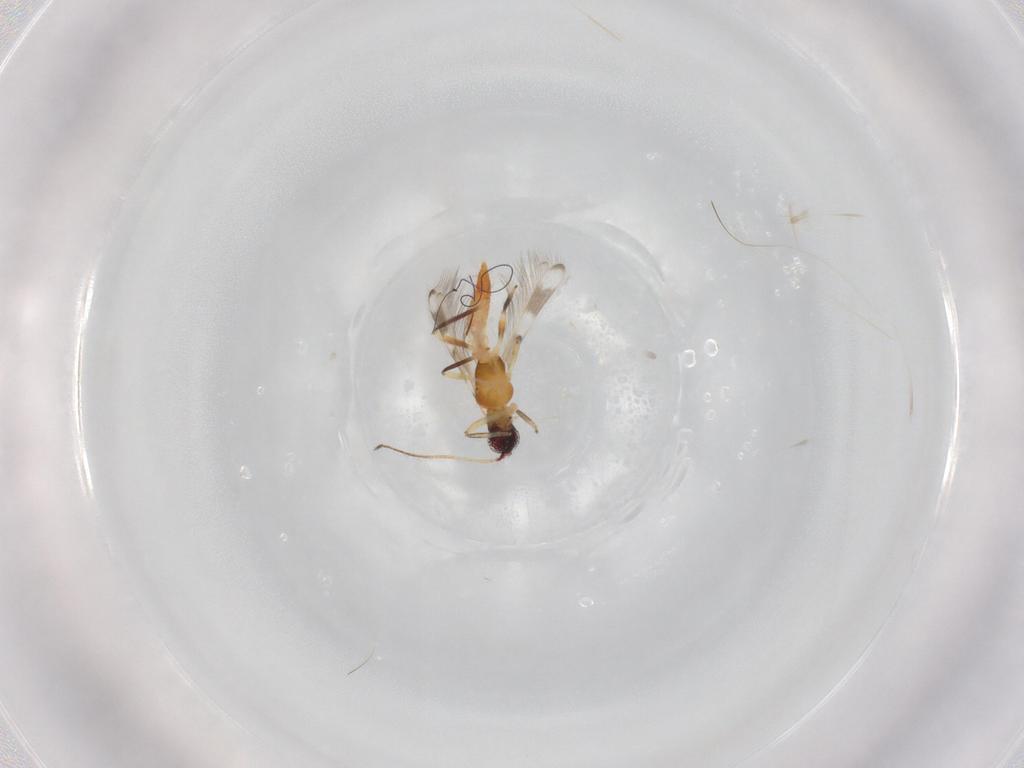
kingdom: Animalia
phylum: Arthropoda
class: Insecta
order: Thysanoptera
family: Aeolothripidae
